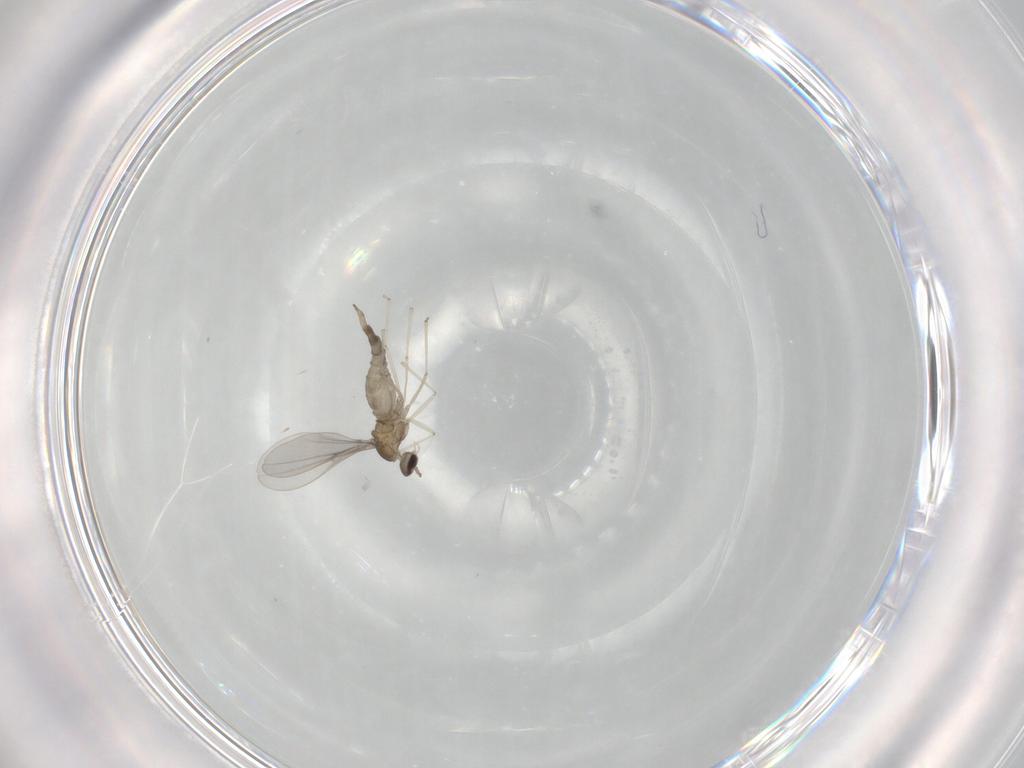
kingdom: Animalia
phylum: Arthropoda
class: Insecta
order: Diptera
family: Cecidomyiidae
